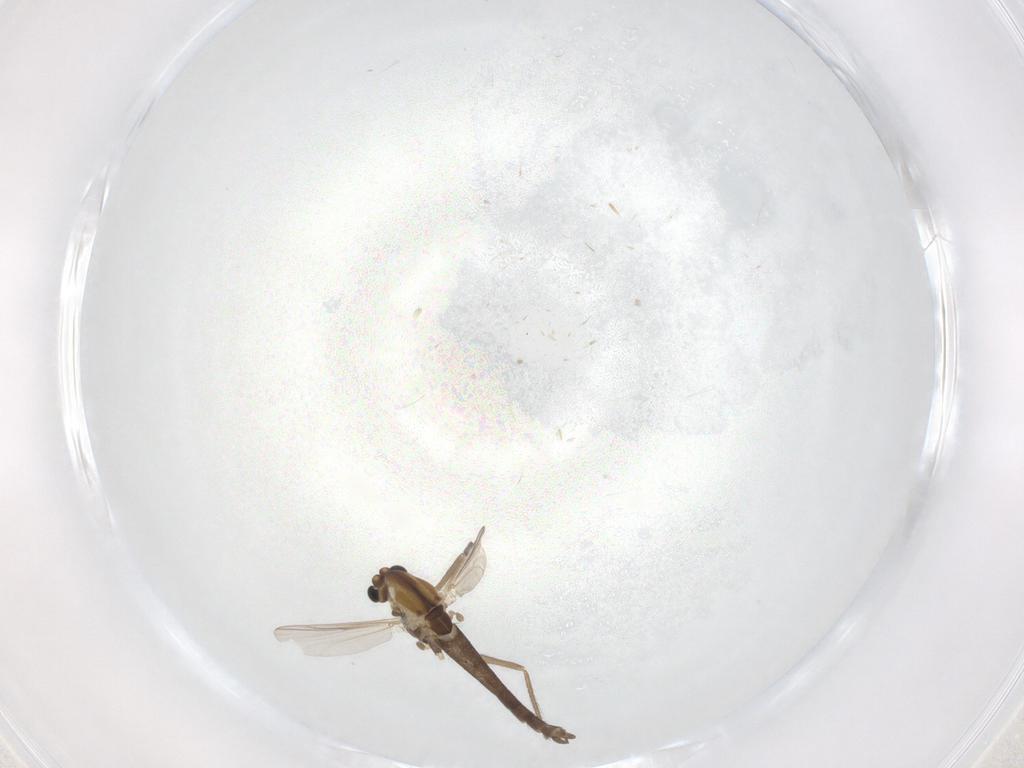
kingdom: Animalia
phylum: Arthropoda
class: Insecta
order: Diptera
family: Chironomidae
